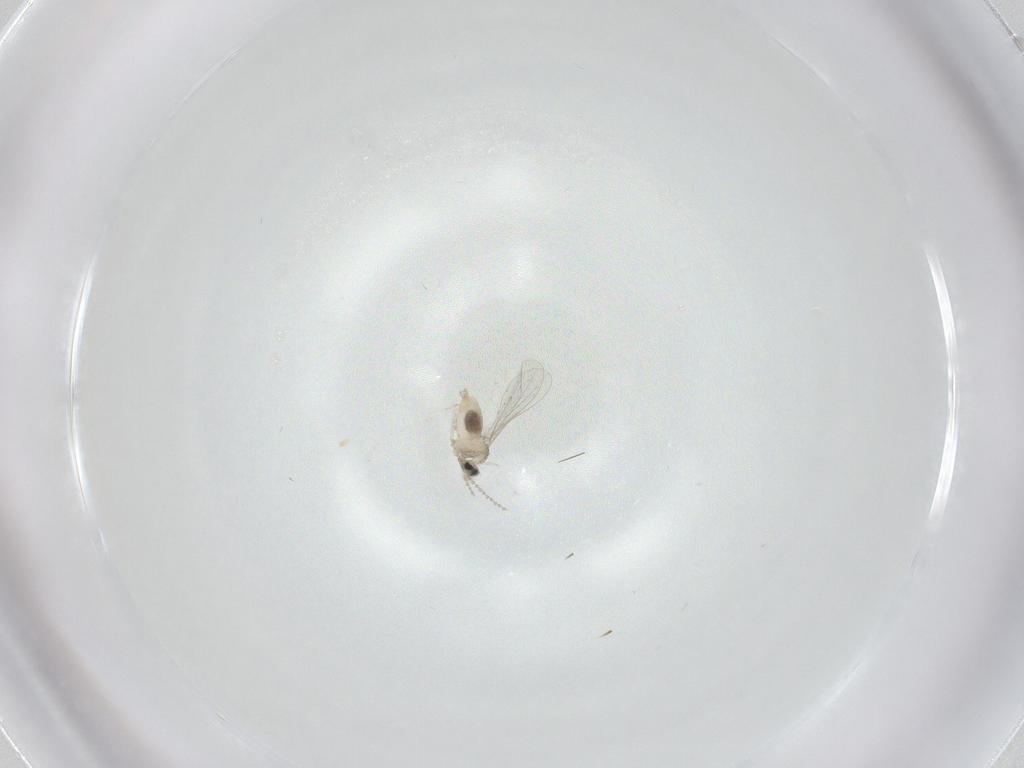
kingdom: Animalia
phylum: Arthropoda
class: Insecta
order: Diptera
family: Cecidomyiidae
